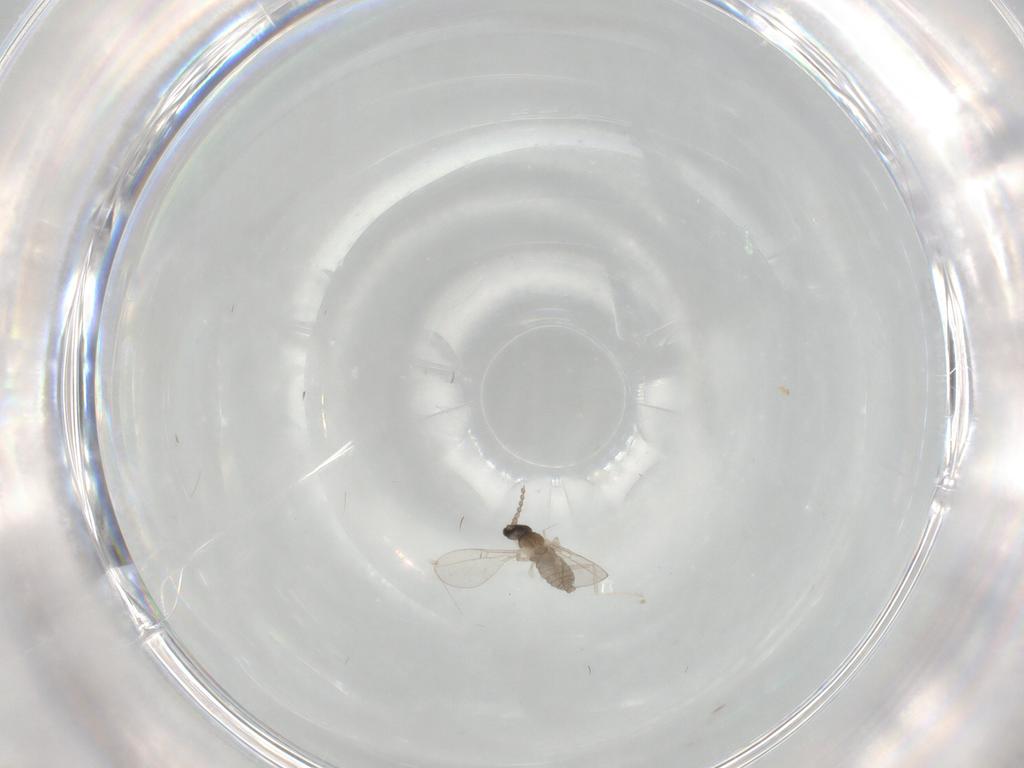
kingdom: Animalia
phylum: Arthropoda
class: Insecta
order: Diptera
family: Cecidomyiidae
